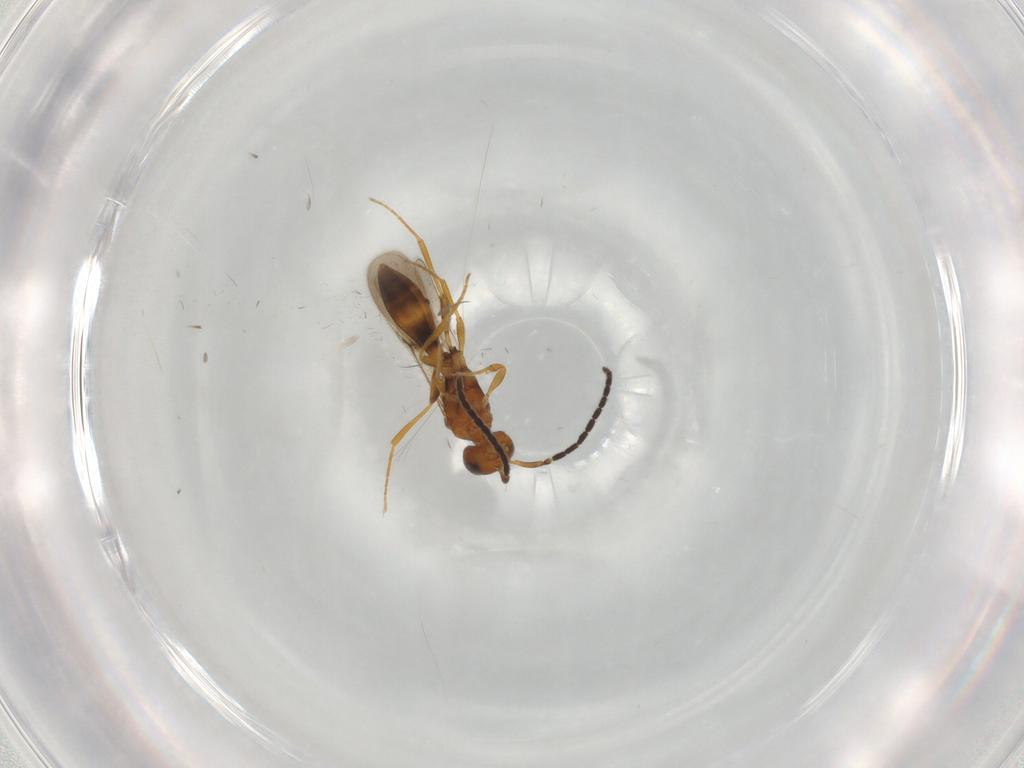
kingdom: Animalia
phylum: Arthropoda
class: Insecta
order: Hymenoptera
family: Scelionidae
